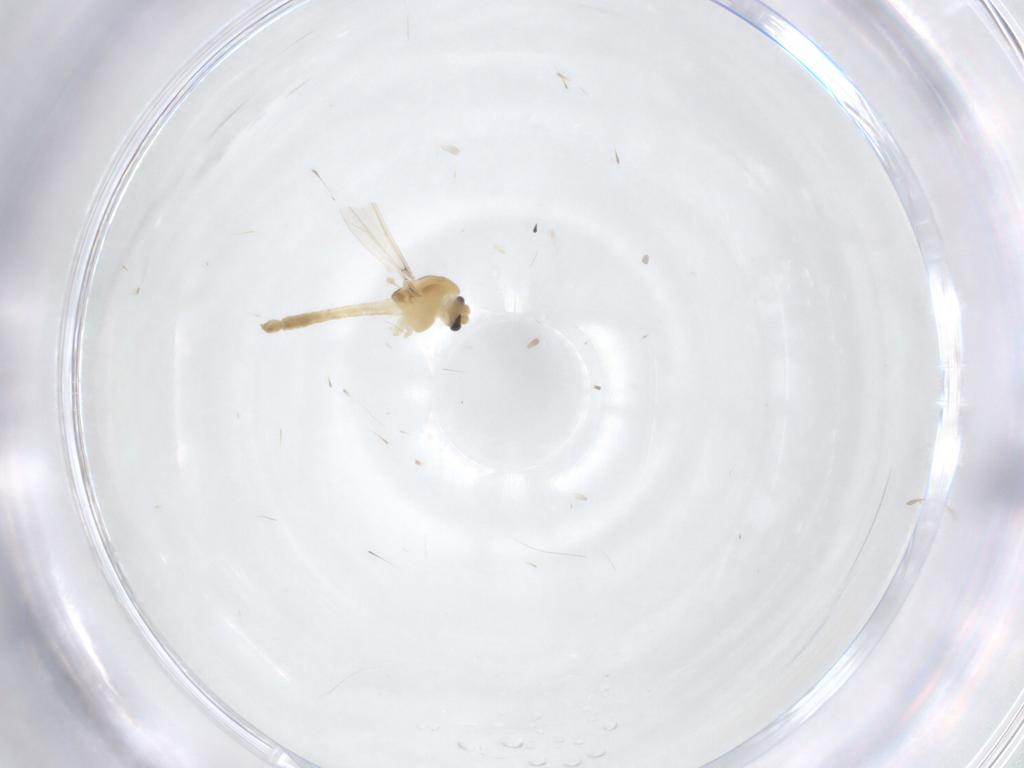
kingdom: Animalia
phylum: Arthropoda
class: Insecta
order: Diptera
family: Chironomidae
